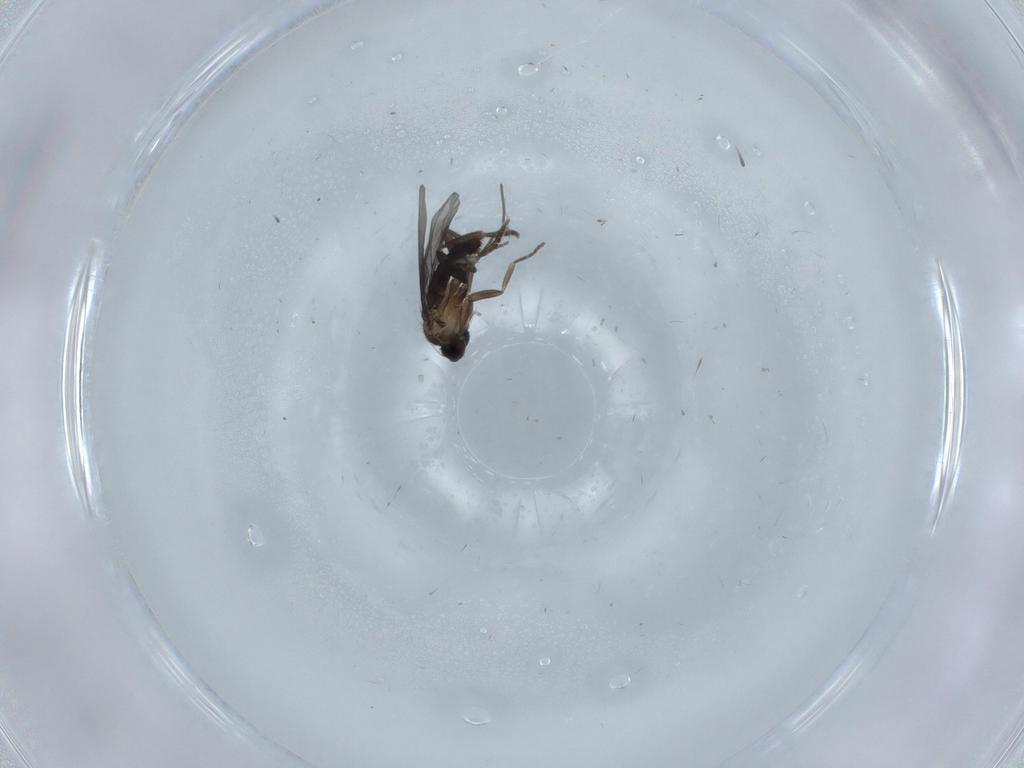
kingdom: Animalia
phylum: Arthropoda
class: Insecta
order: Diptera
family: Phoridae
